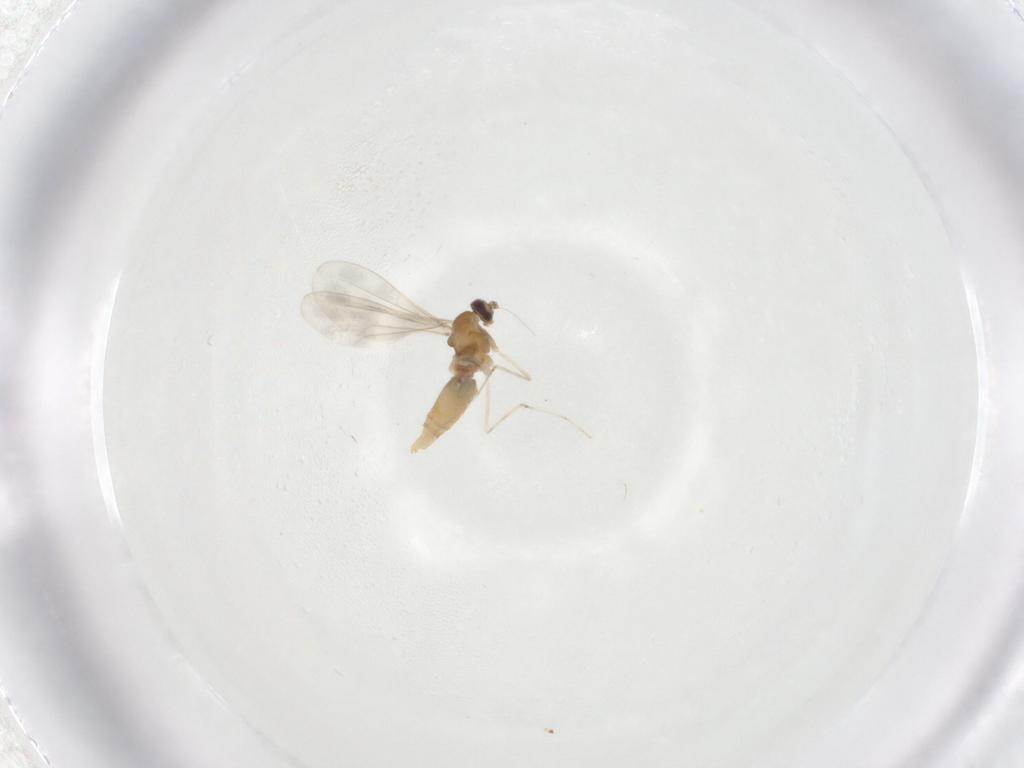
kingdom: Animalia
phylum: Arthropoda
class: Insecta
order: Diptera
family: Cecidomyiidae
